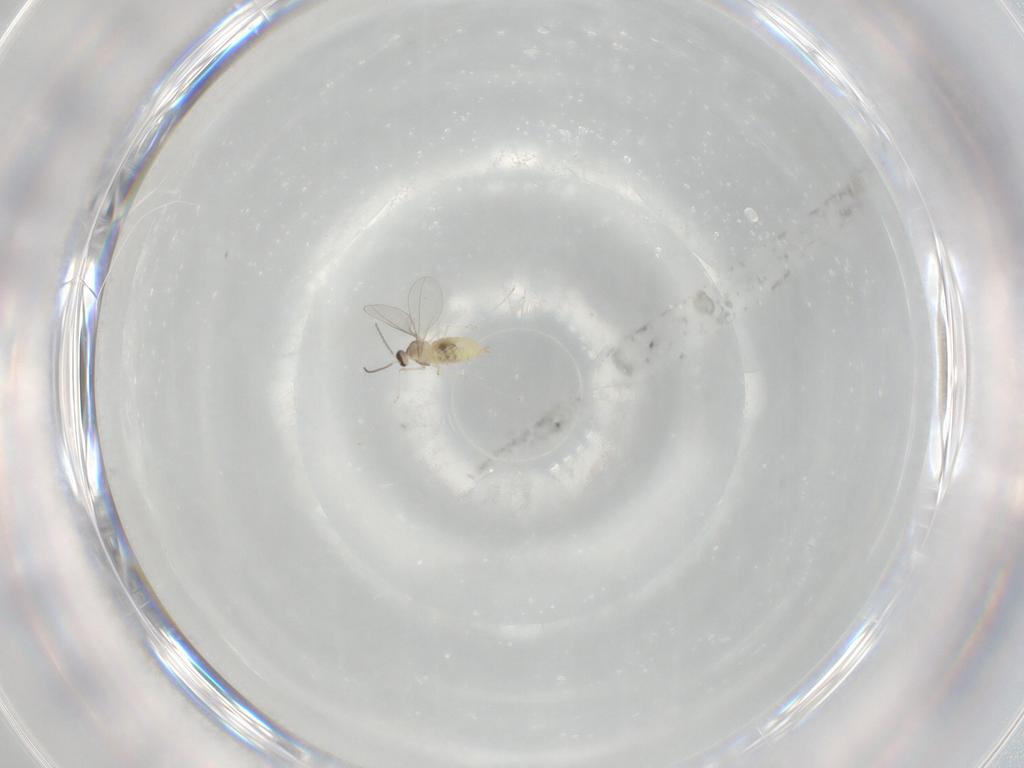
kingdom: Animalia
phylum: Arthropoda
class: Insecta
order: Diptera
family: Cecidomyiidae
